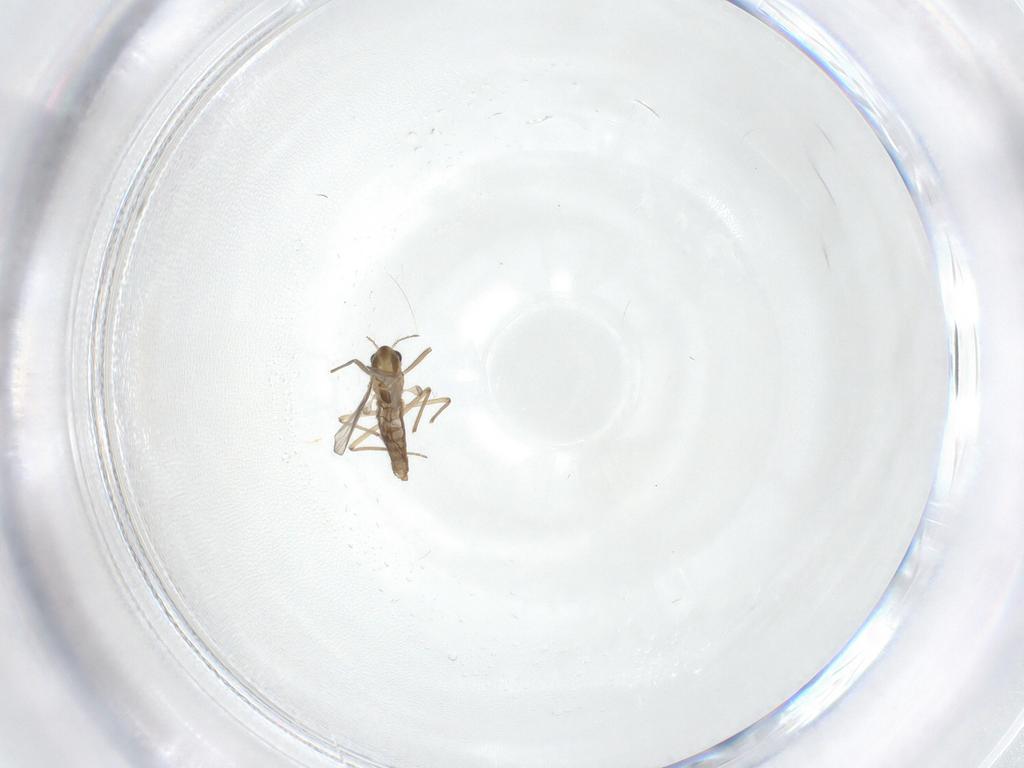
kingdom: Animalia
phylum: Arthropoda
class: Insecta
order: Diptera
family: Chironomidae
